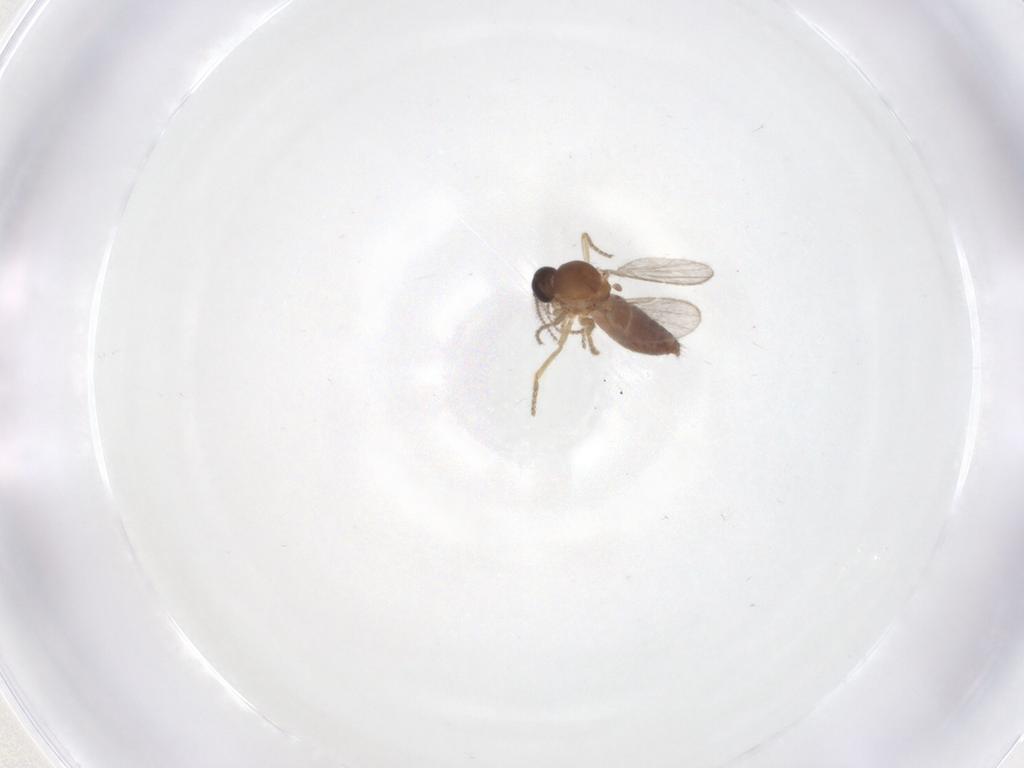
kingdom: Animalia
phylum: Arthropoda
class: Insecta
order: Diptera
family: Ceratopogonidae
